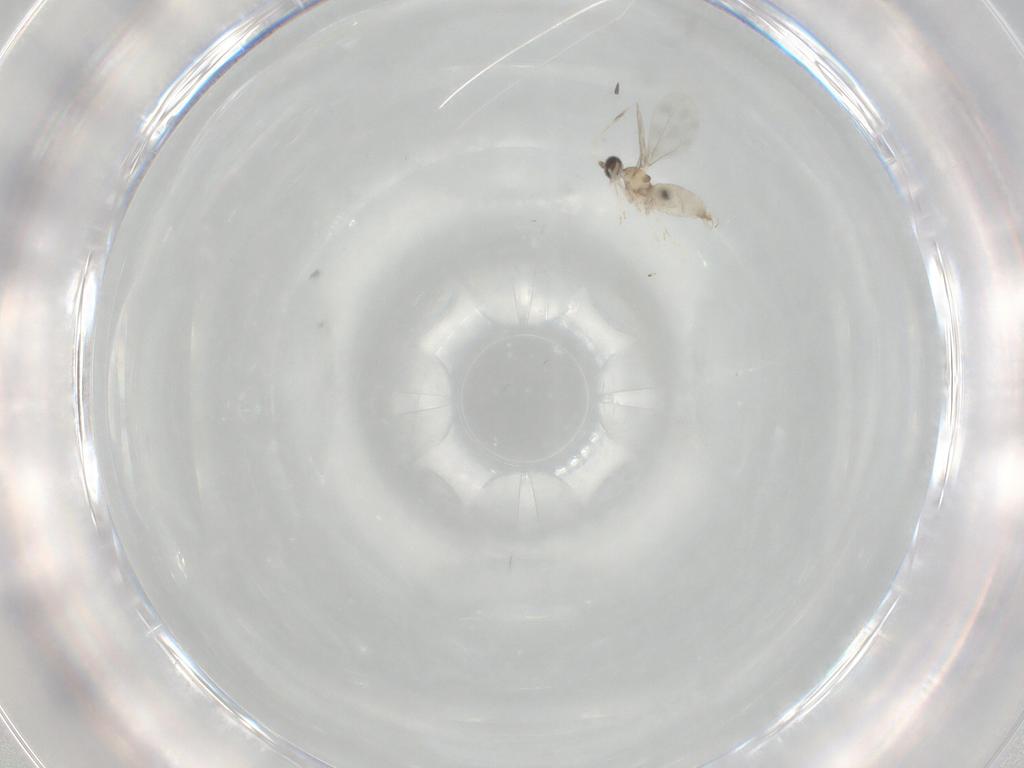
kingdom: Animalia
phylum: Arthropoda
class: Insecta
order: Diptera
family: Cecidomyiidae
